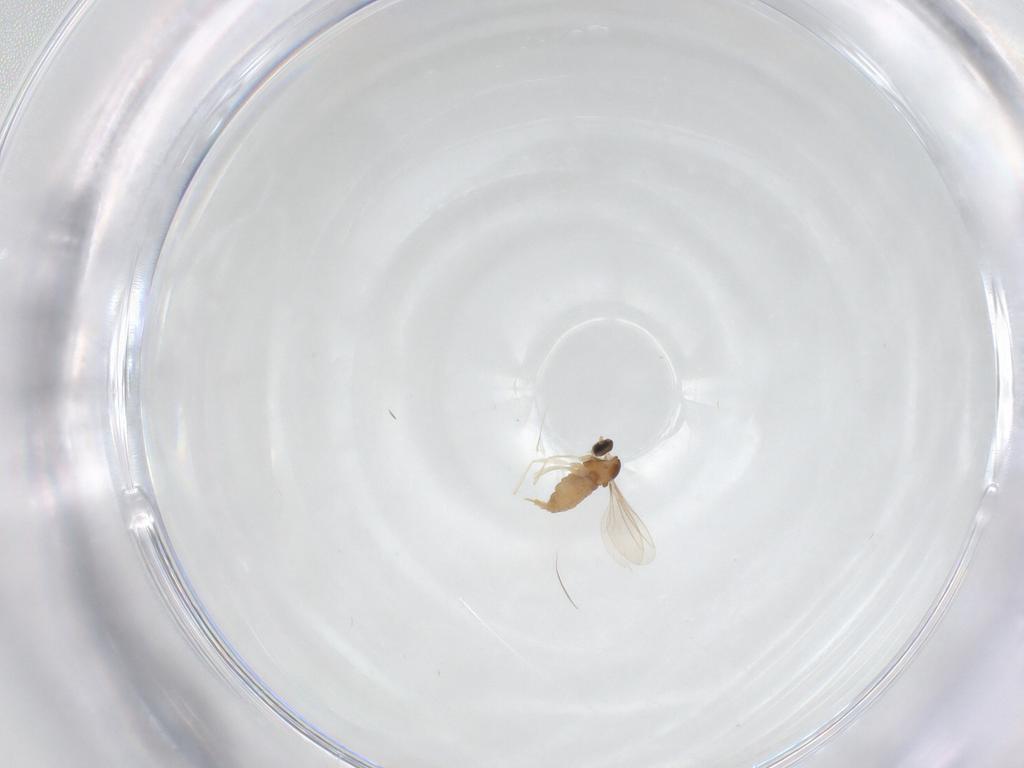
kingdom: Animalia
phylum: Arthropoda
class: Insecta
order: Diptera
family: Cecidomyiidae
